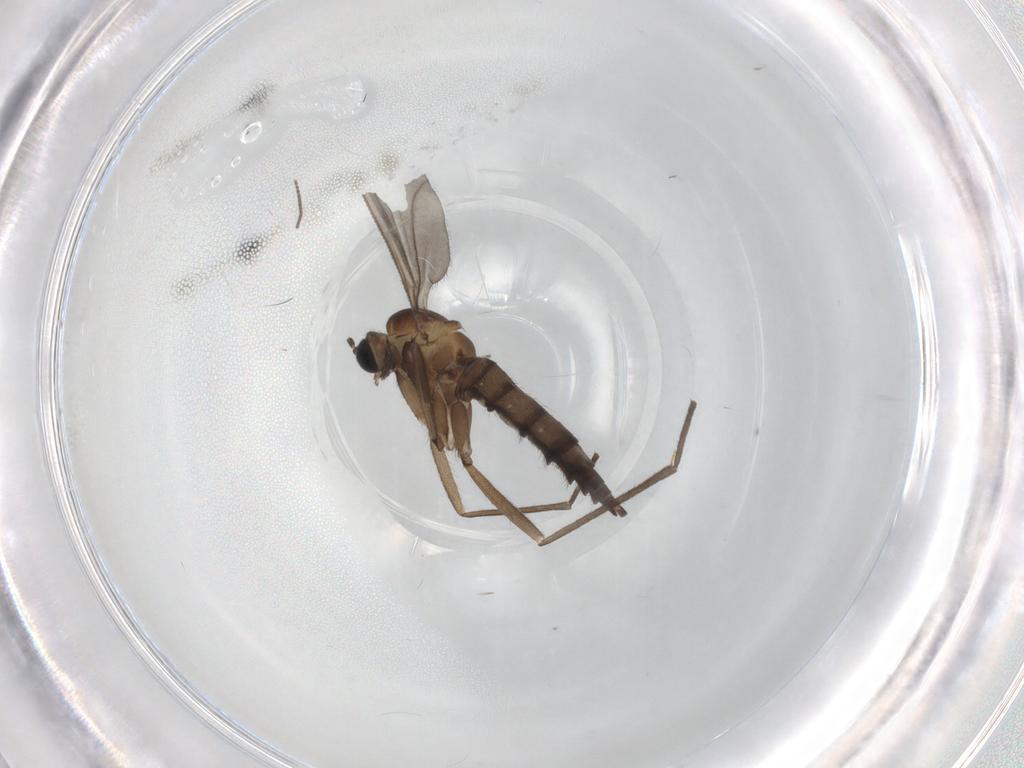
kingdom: Animalia
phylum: Arthropoda
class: Insecta
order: Diptera
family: Sciaridae
